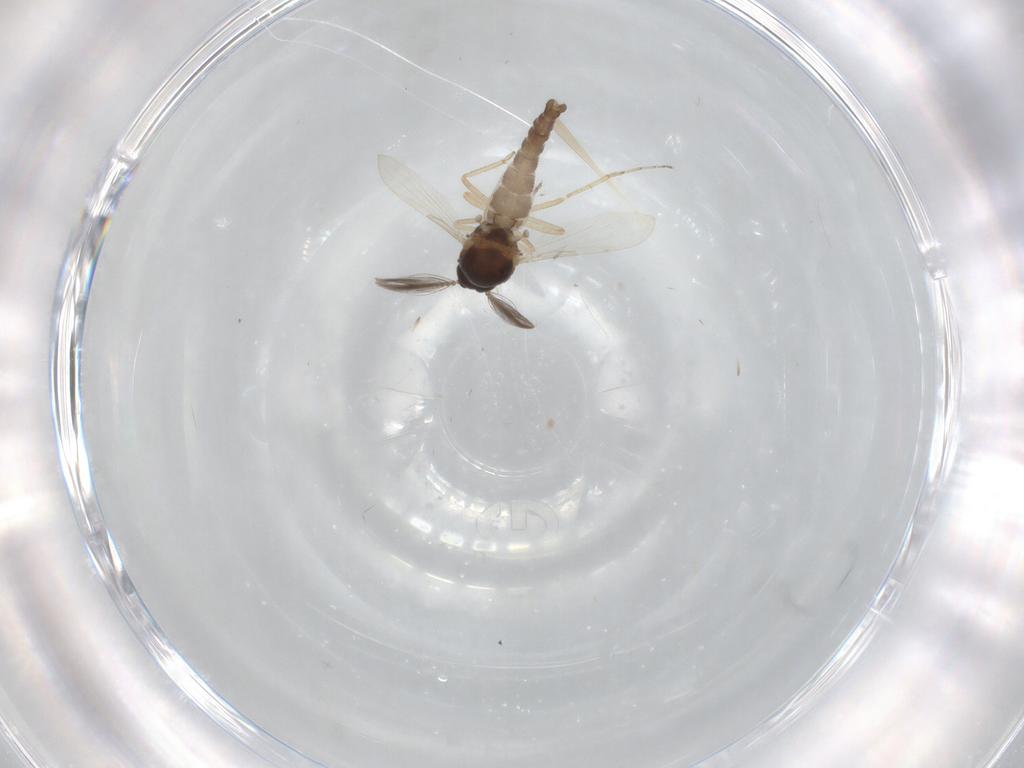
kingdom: Animalia
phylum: Arthropoda
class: Insecta
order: Diptera
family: Ceratopogonidae
